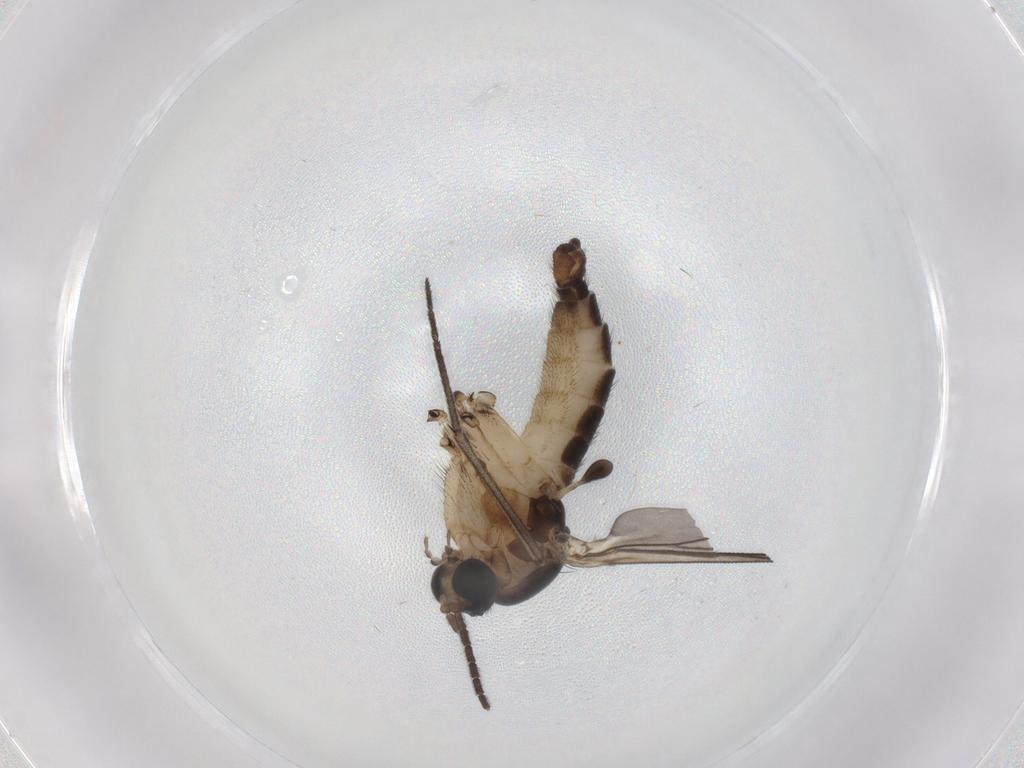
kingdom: Animalia
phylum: Arthropoda
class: Insecta
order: Diptera
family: Sciaridae
